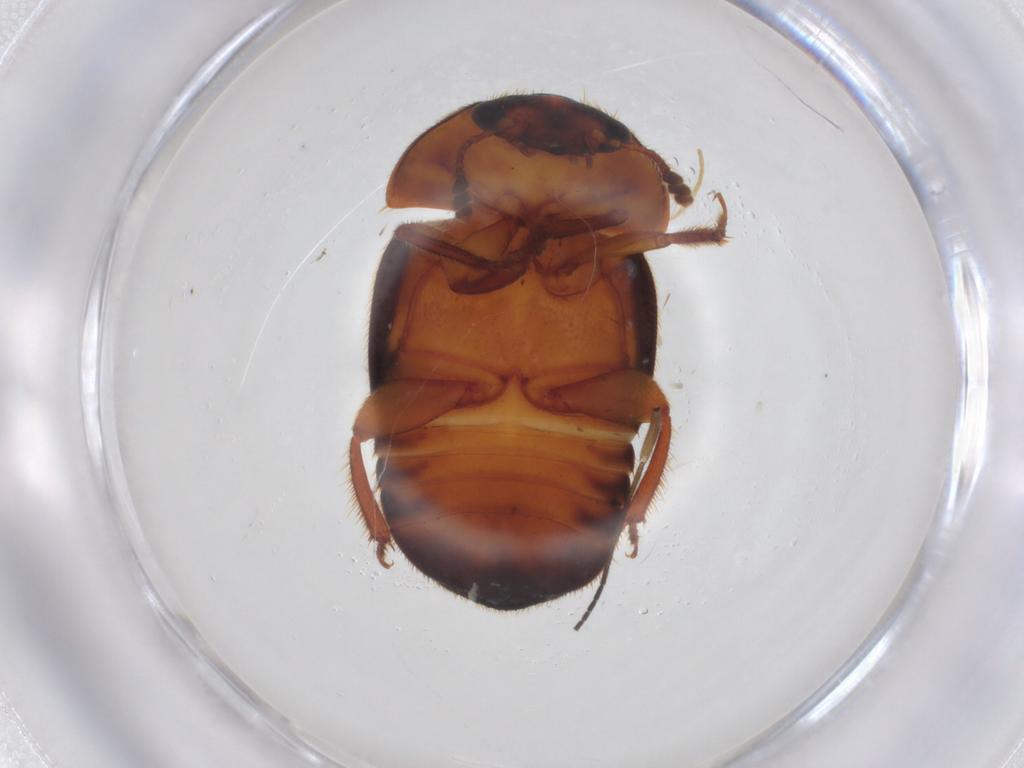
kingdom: Animalia
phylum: Arthropoda
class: Insecta
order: Coleoptera
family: Nitidulidae
